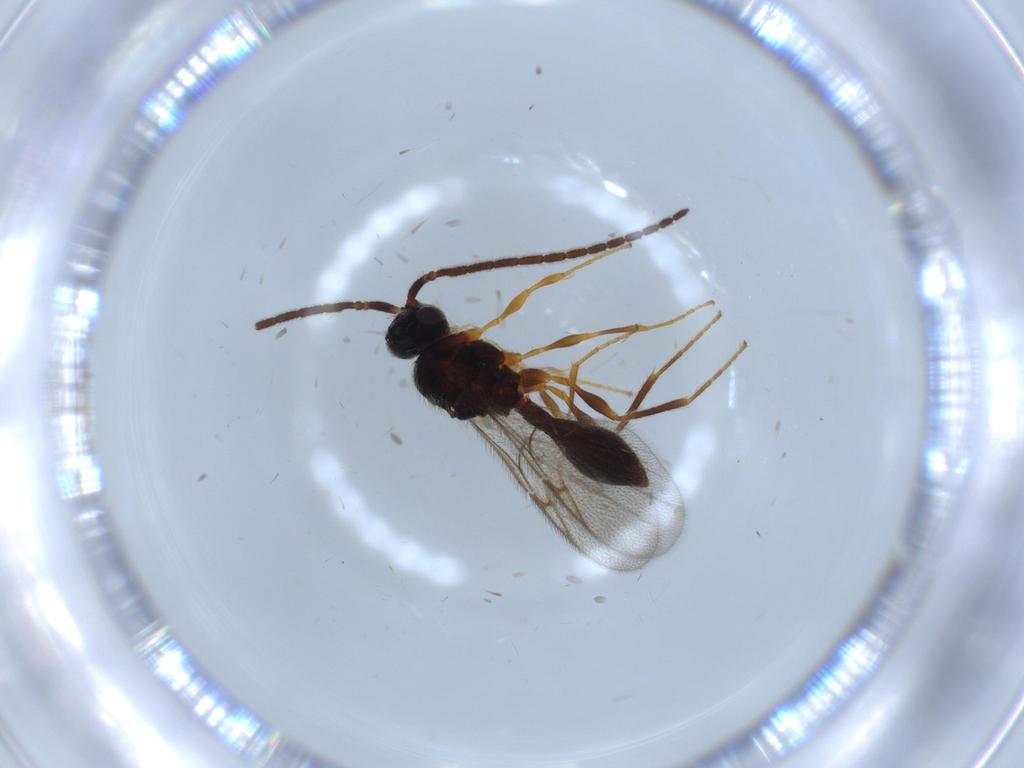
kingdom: Animalia
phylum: Arthropoda
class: Insecta
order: Hymenoptera
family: Diapriidae
